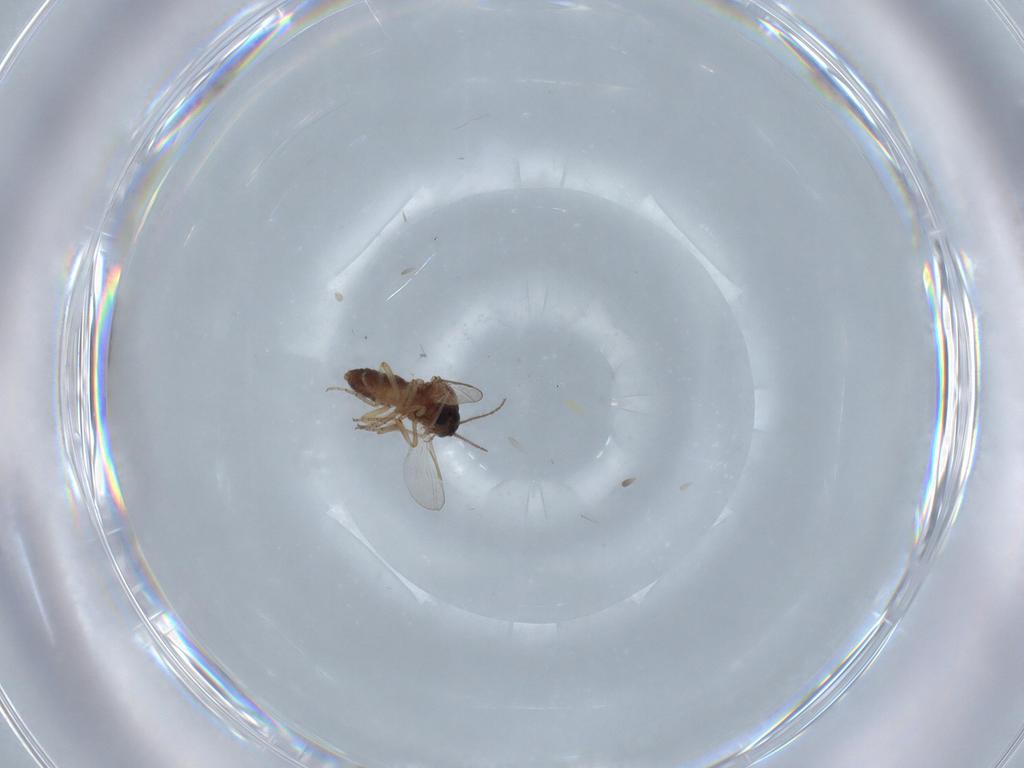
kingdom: Animalia
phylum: Arthropoda
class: Insecta
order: Diptera
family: Ceratopogonidae
